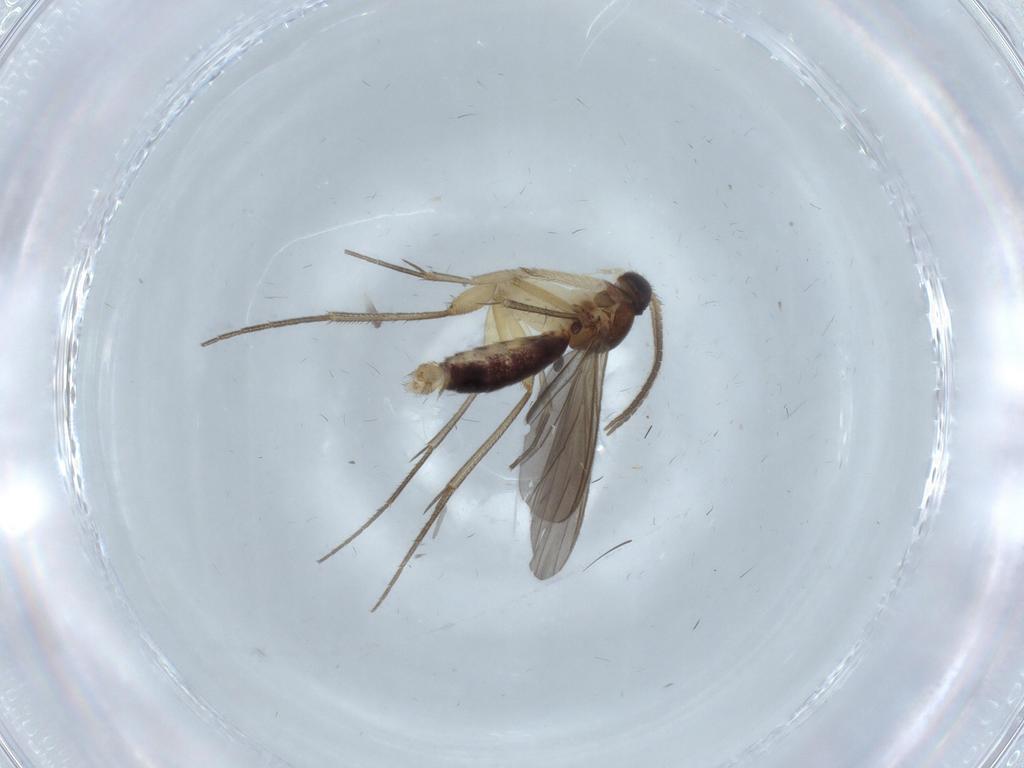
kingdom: Animalia
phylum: Arthropoda
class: Insecta
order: Diptera
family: Cecidomyiidae
